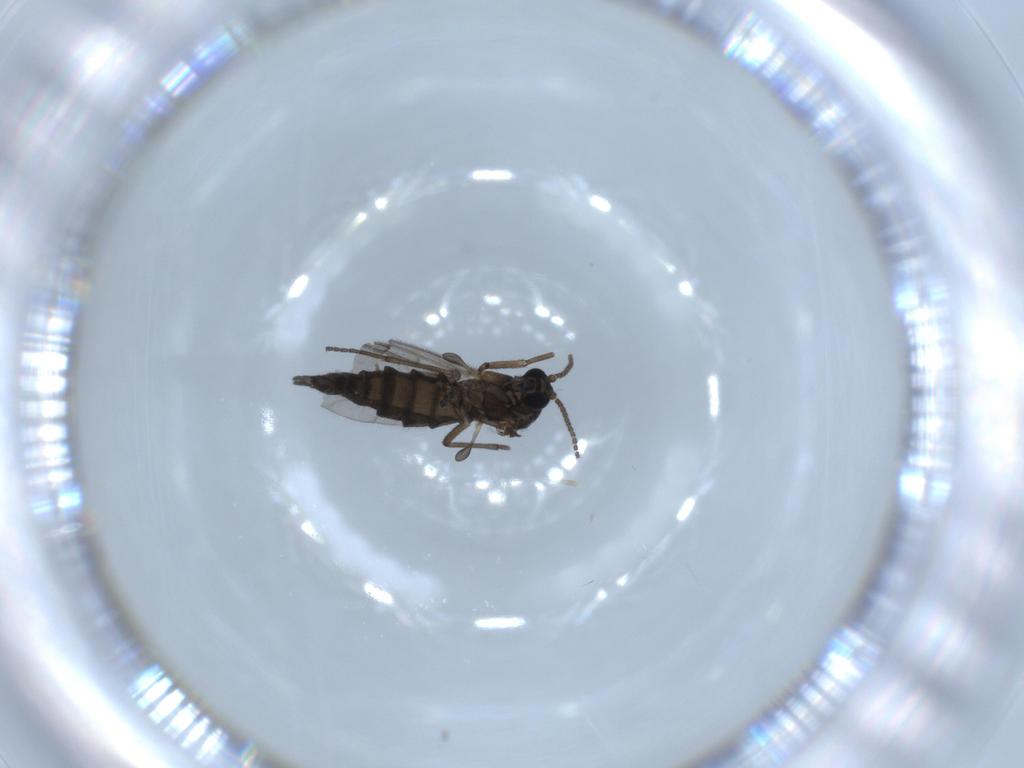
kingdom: Animalia
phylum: Arthropoda
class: Insecta
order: Diptera
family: Sciaridae
